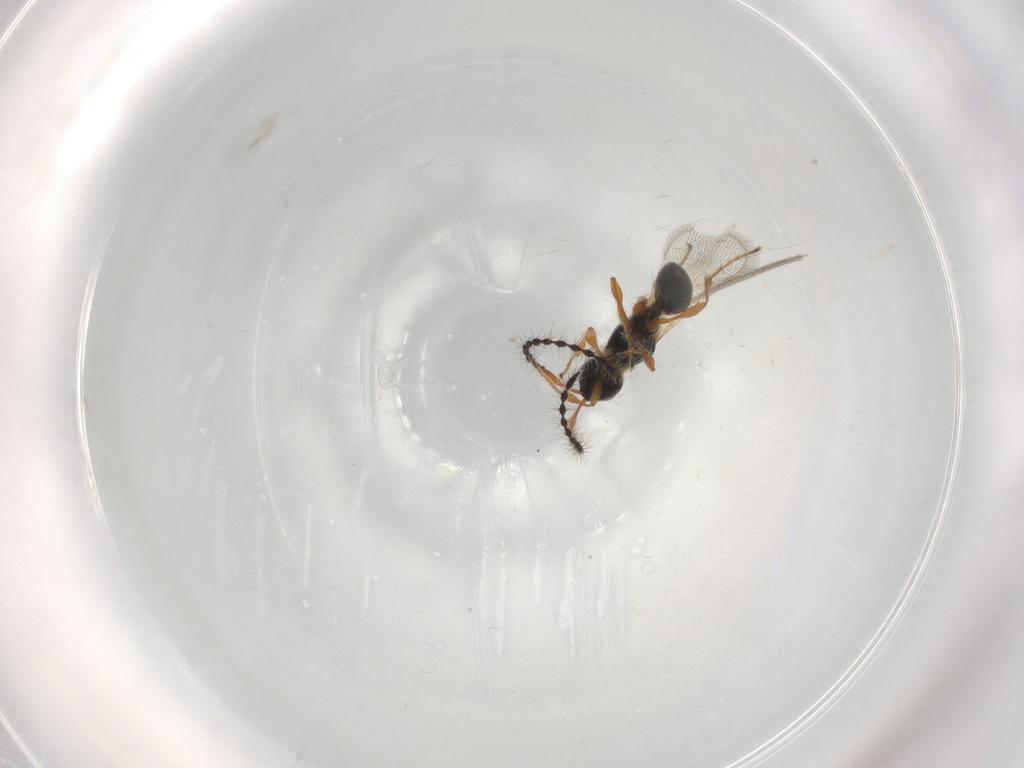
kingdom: Animalia
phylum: Arthropoda
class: Insecta
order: Hymenoptera
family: Diapriidae
